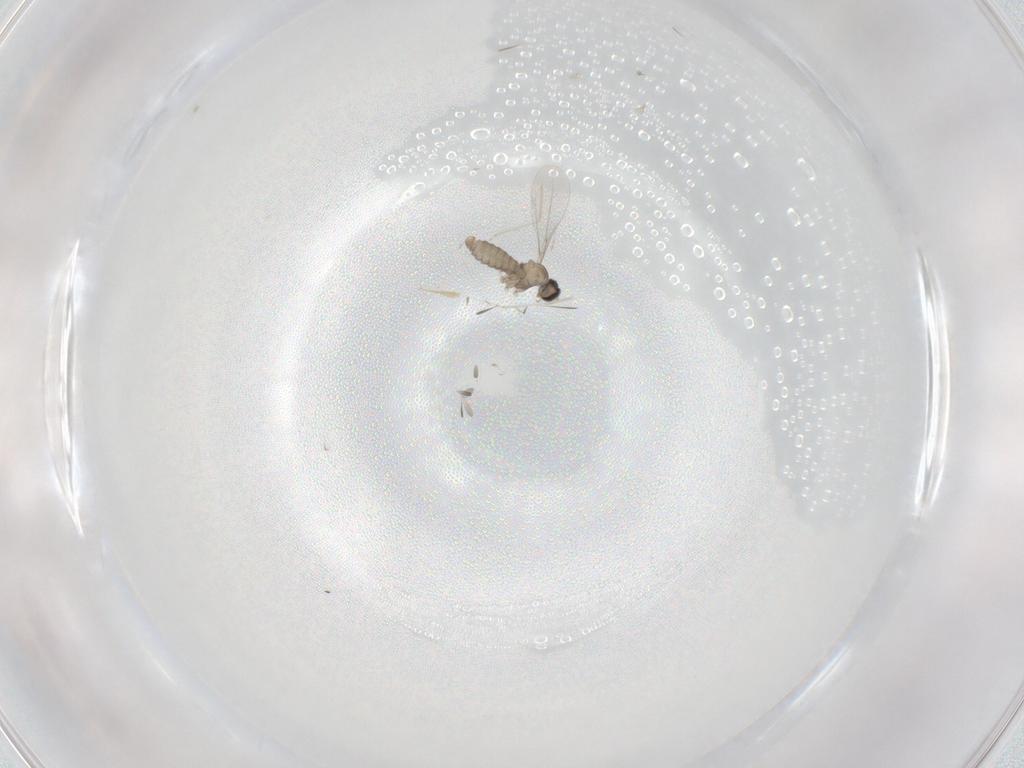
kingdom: Animalia
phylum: Arthropoda
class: Insecta
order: Diptera
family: Cecidomyiidae
